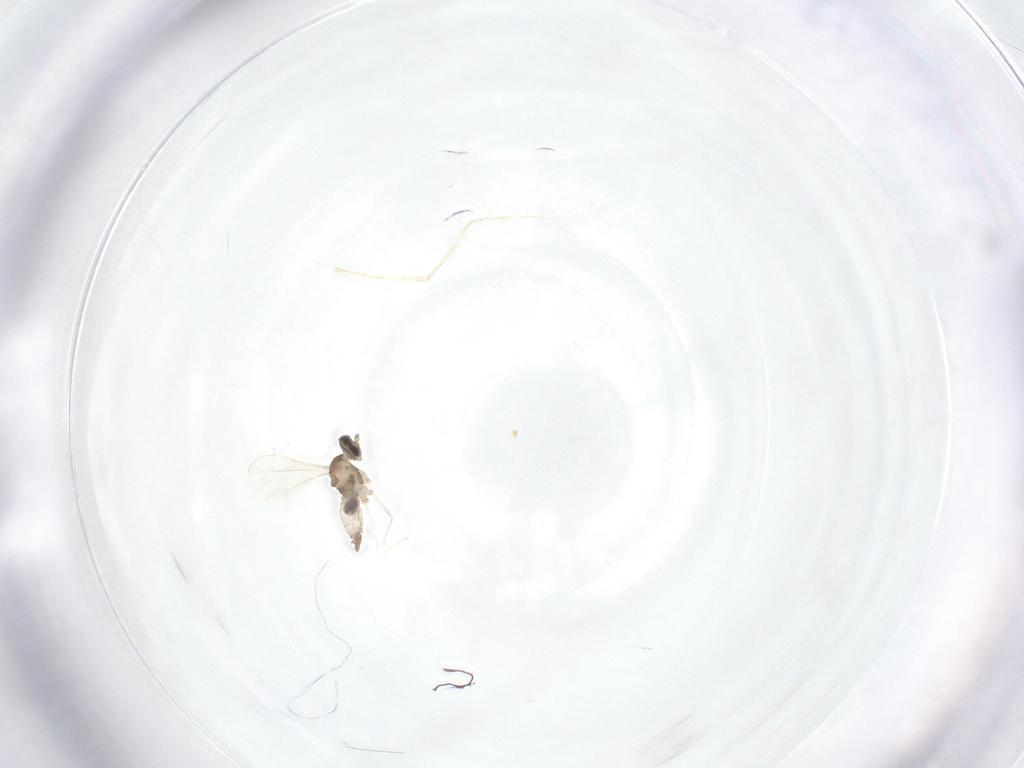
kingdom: Animalia
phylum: Arthropoda
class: Insecta
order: Diptera
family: Cecidomyiidae
